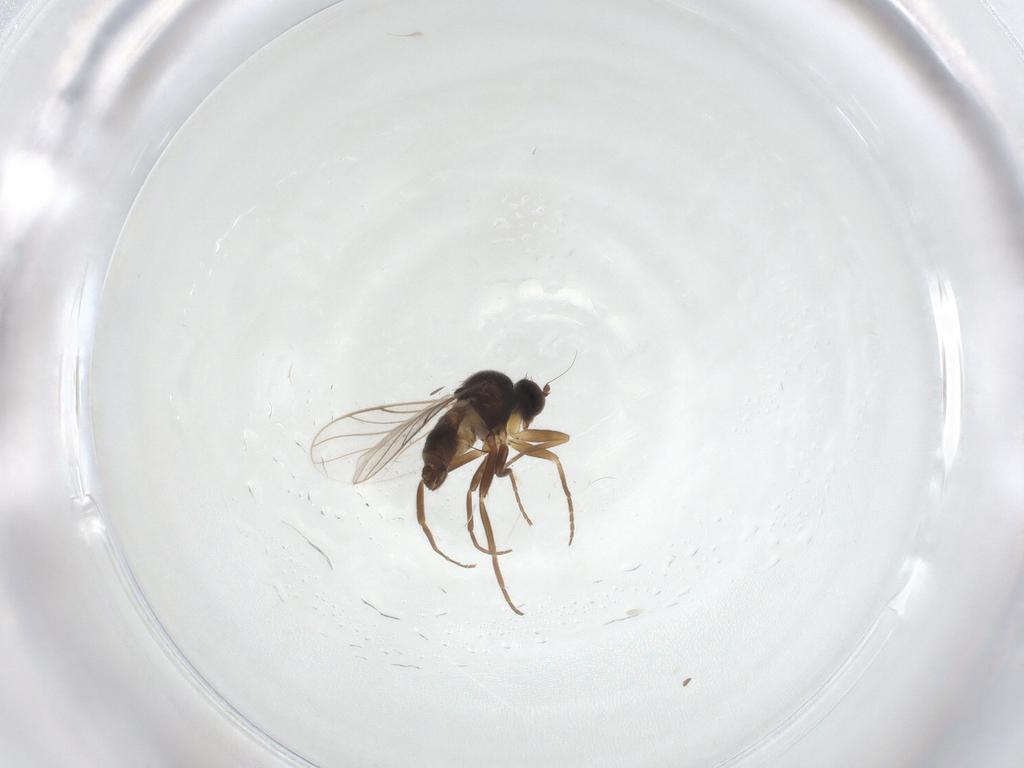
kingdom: Animalia
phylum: Arthropoda
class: Insecta
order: Diptera
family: Hybotidae
